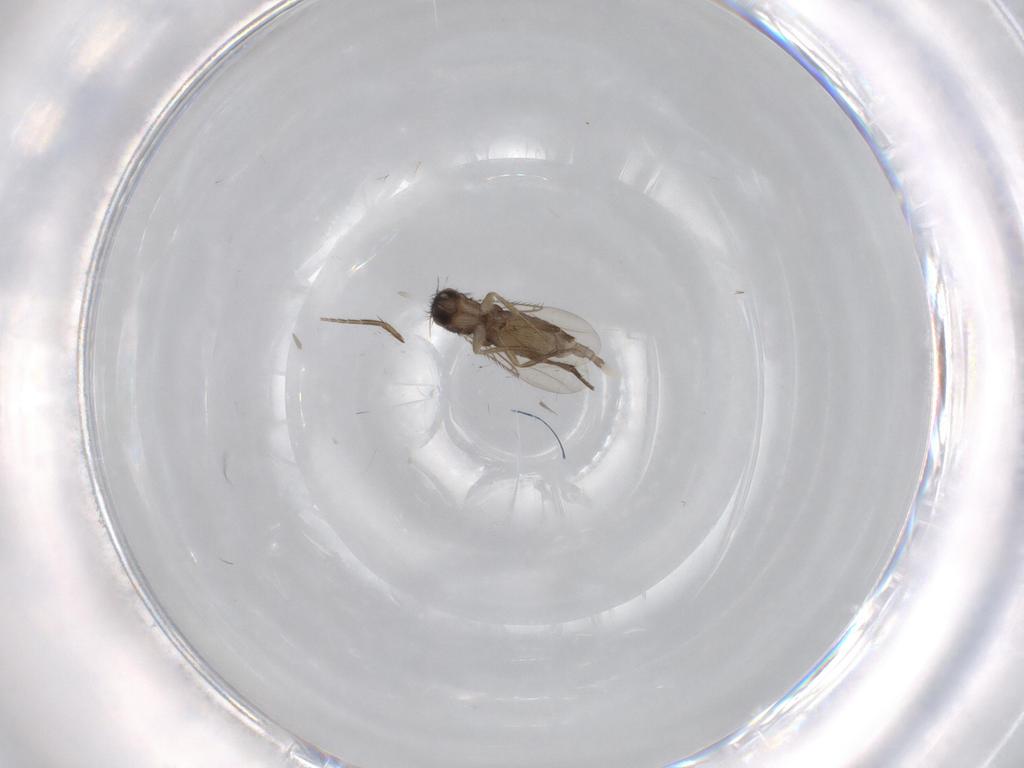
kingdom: Animalia
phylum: Arthropoda
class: Insecta
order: Diptera
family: Phoridae
